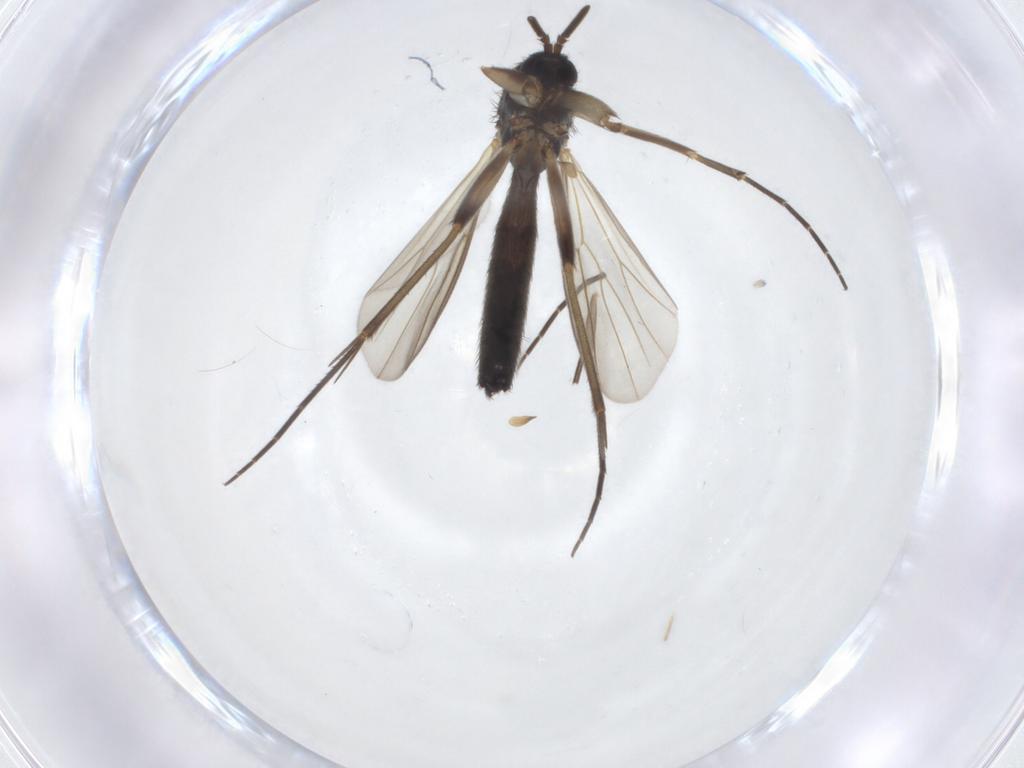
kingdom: Animalia
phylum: Arthropoda
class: Insecta
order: Diptera
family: Mycetophilidae
